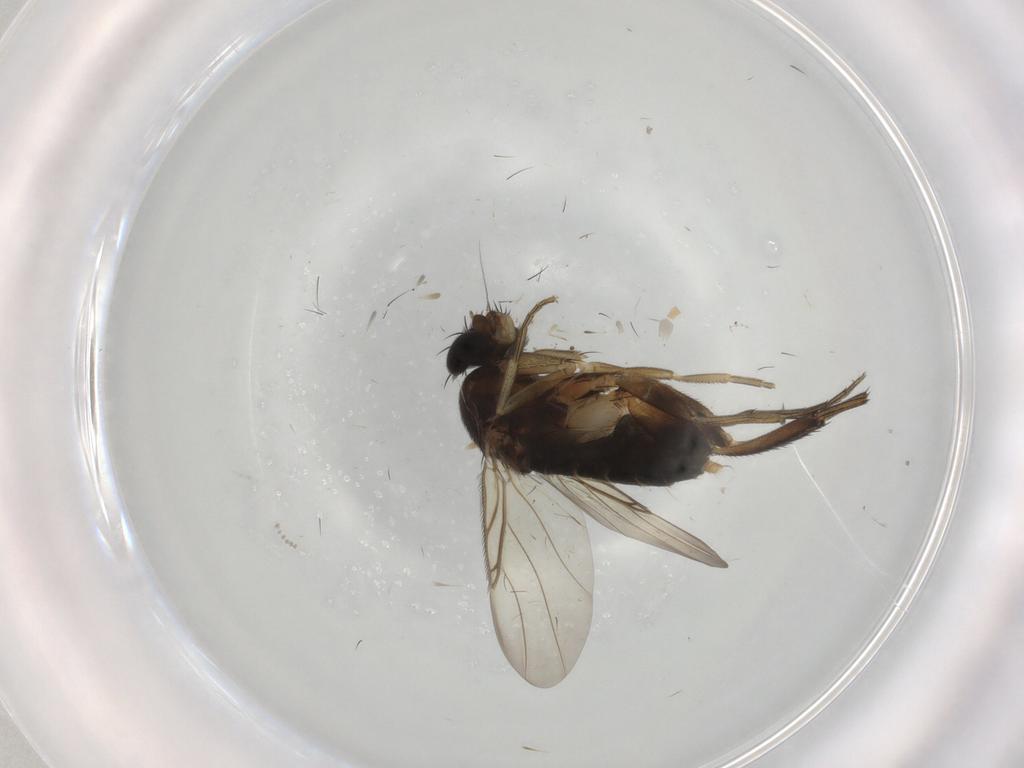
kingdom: Animalia
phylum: Arthropoda
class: Insecta
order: Diptera
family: Phoridae
